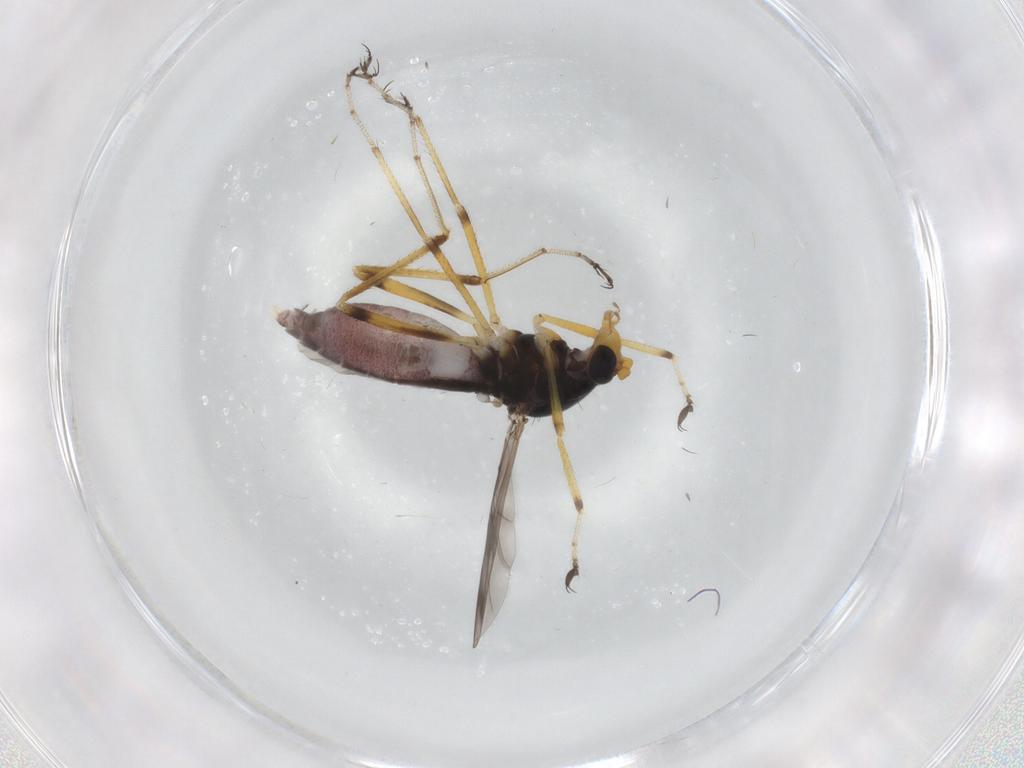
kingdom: Animalia
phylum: Arthropoda
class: Insecta
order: Diptera
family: Ceratopogonidae
